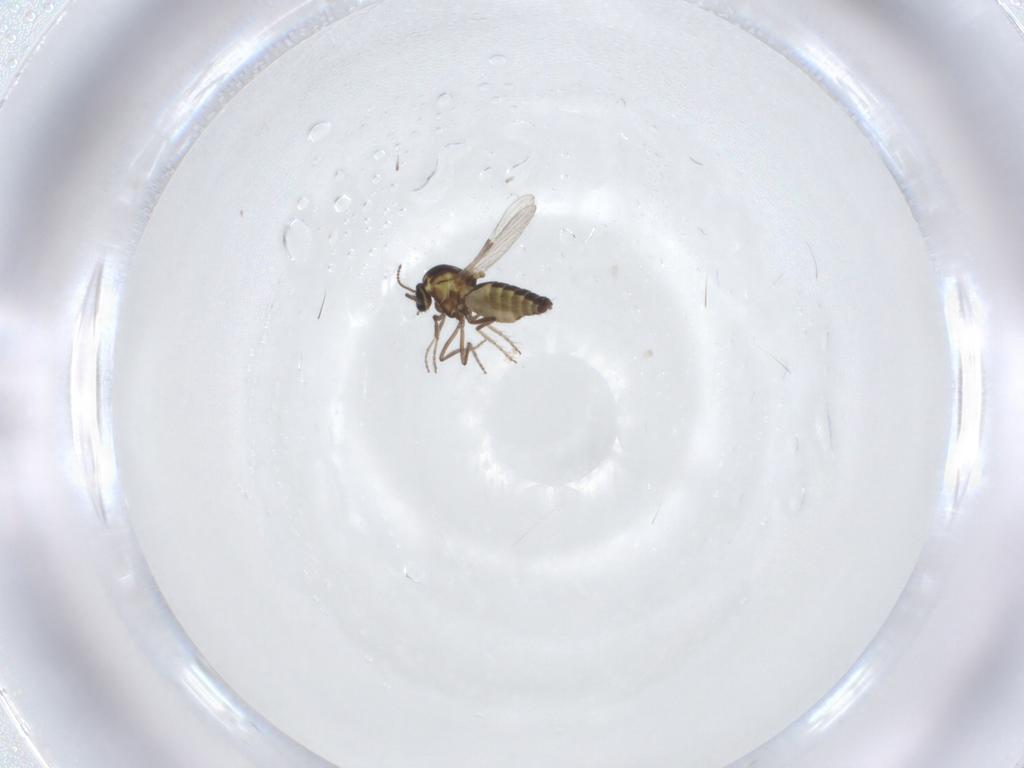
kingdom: Animalia
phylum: Arthropoda
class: Insecta
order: Diptera
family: Ceratopogonidae
